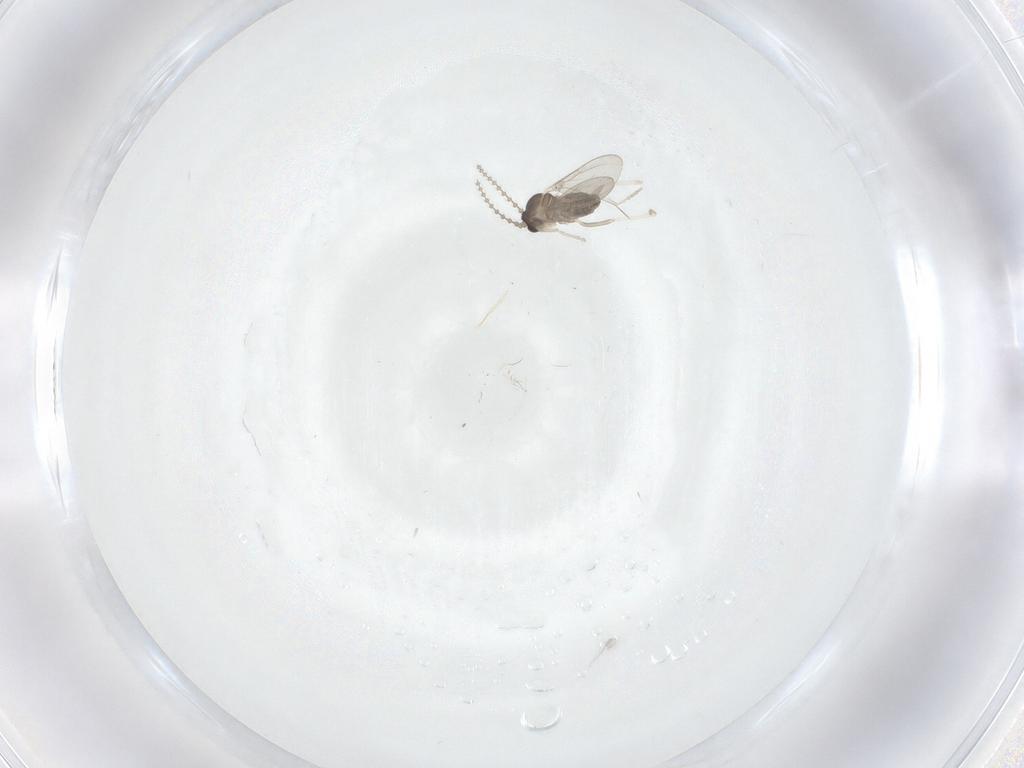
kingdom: Animalia
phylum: Arthropoda
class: Insecta
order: Diptera
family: Cecidomyiidae
